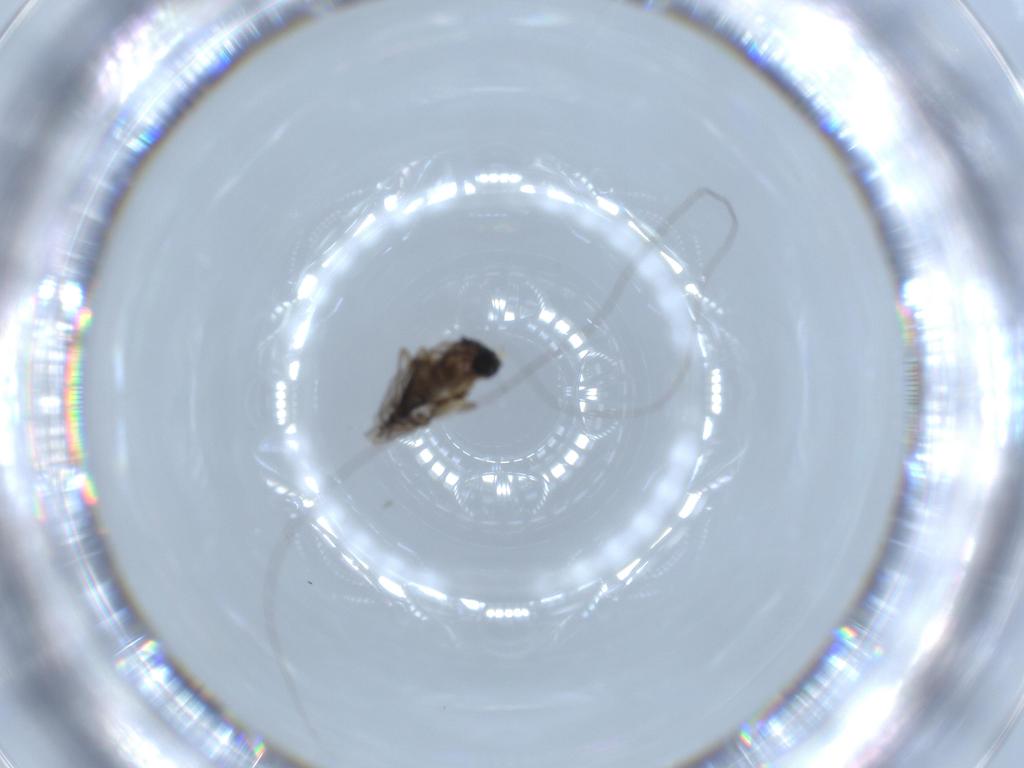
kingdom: Animalia
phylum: Arthropoda
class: Insecta
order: Diptera
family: Sciaridae
